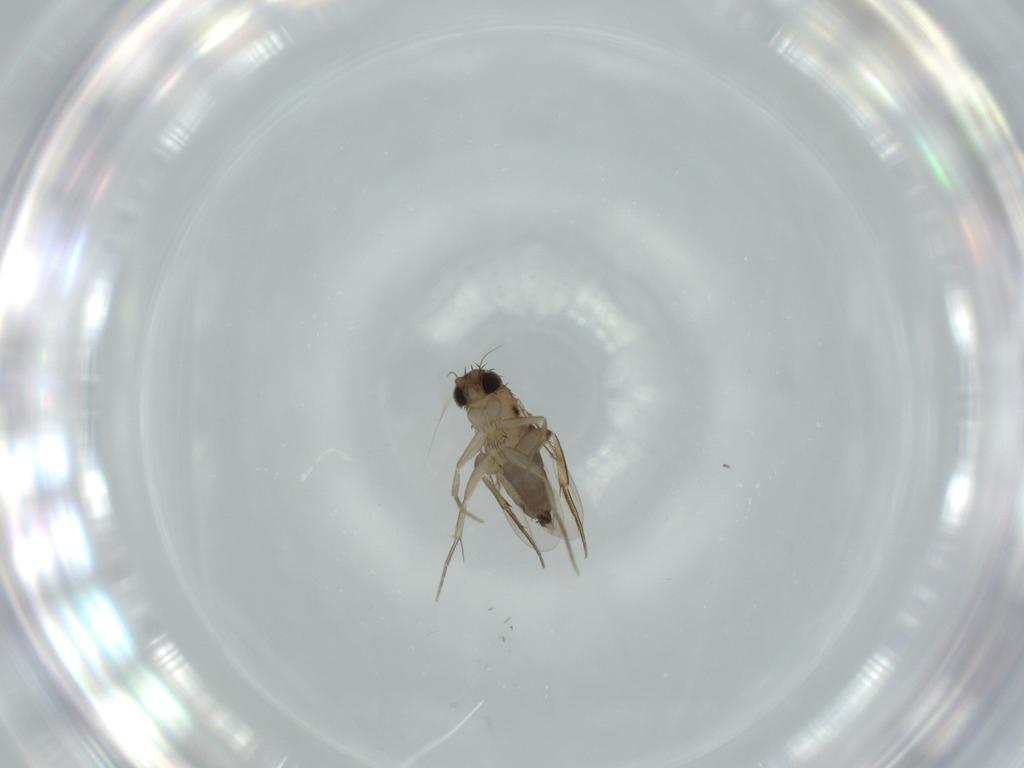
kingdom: Animalia
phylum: Arthropoda
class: Insecta
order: Diptera
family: Phoridae
